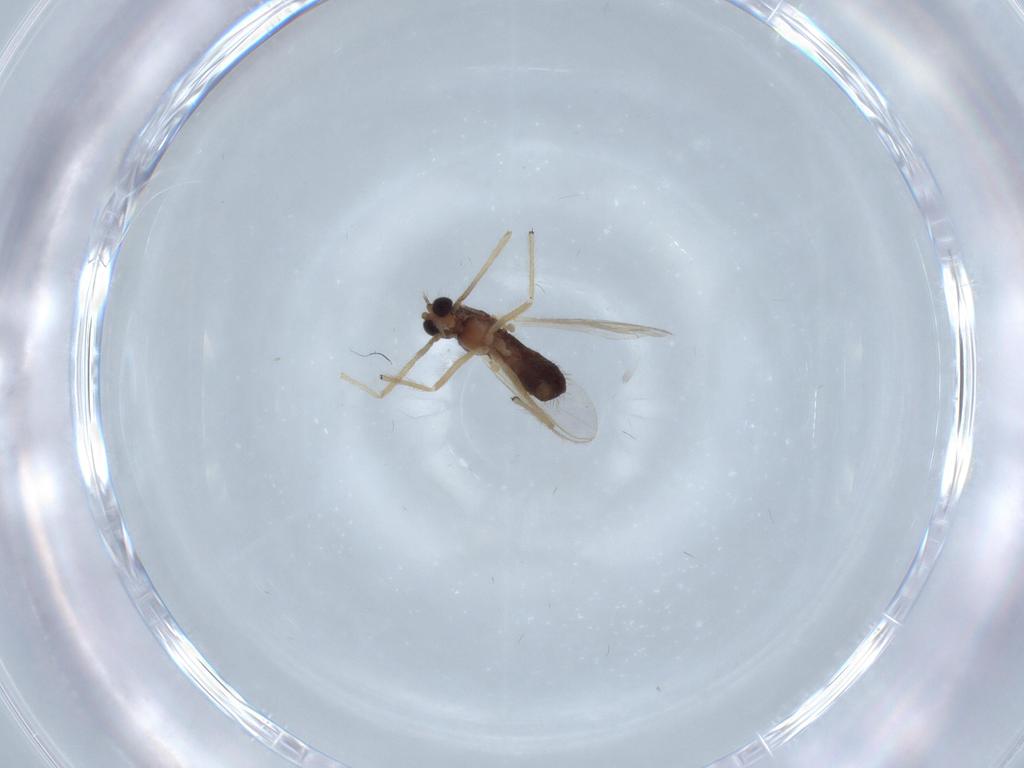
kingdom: Animalia
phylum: Arthropoda
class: Insecta
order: Diptera
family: Chironomidae
